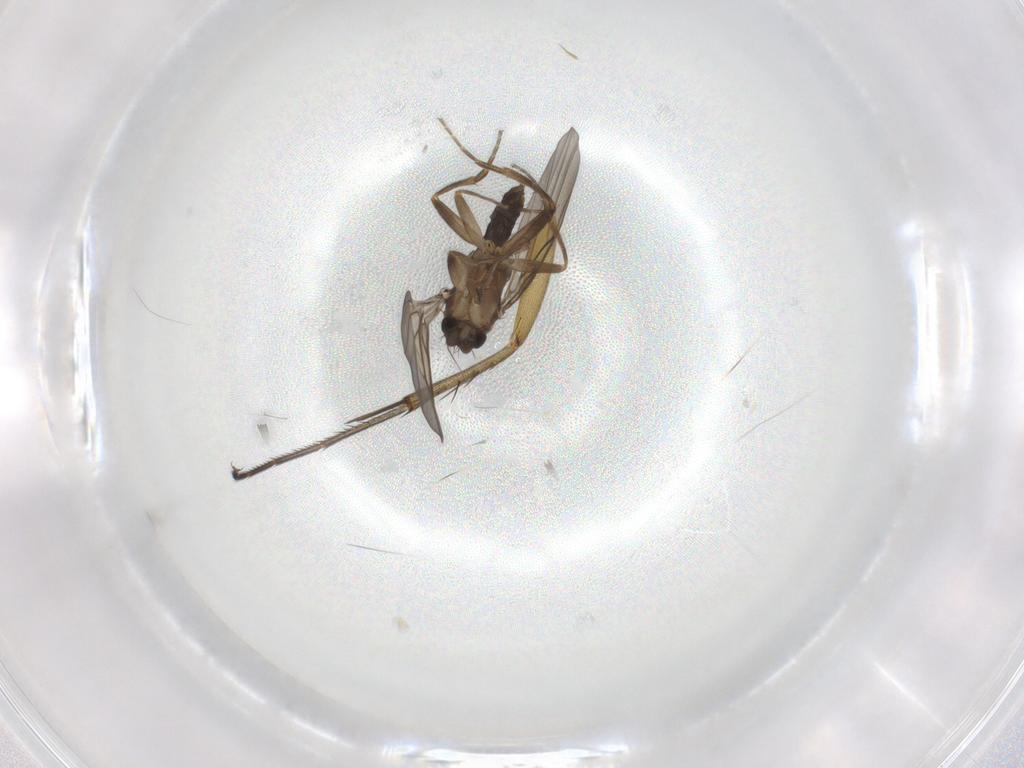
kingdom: Animalia
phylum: Arthropoda
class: Insecta
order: Diptera
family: Phoridae
